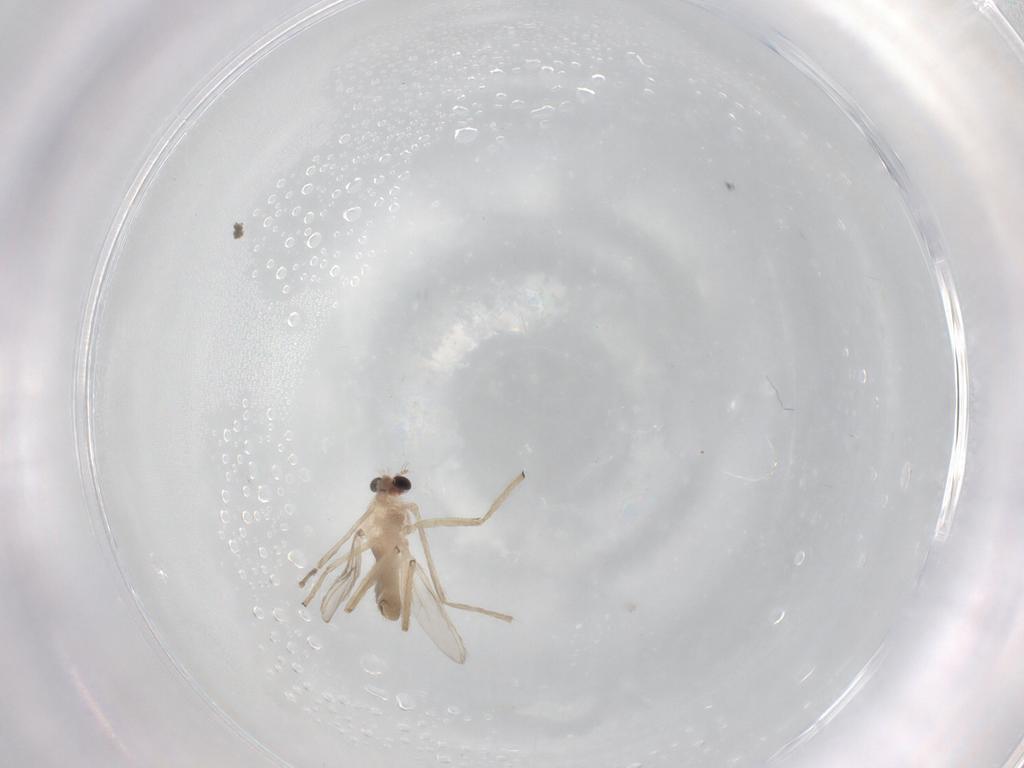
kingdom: Animalia
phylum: Arthropoda
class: Insecta
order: Diptera
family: Chironomidae
